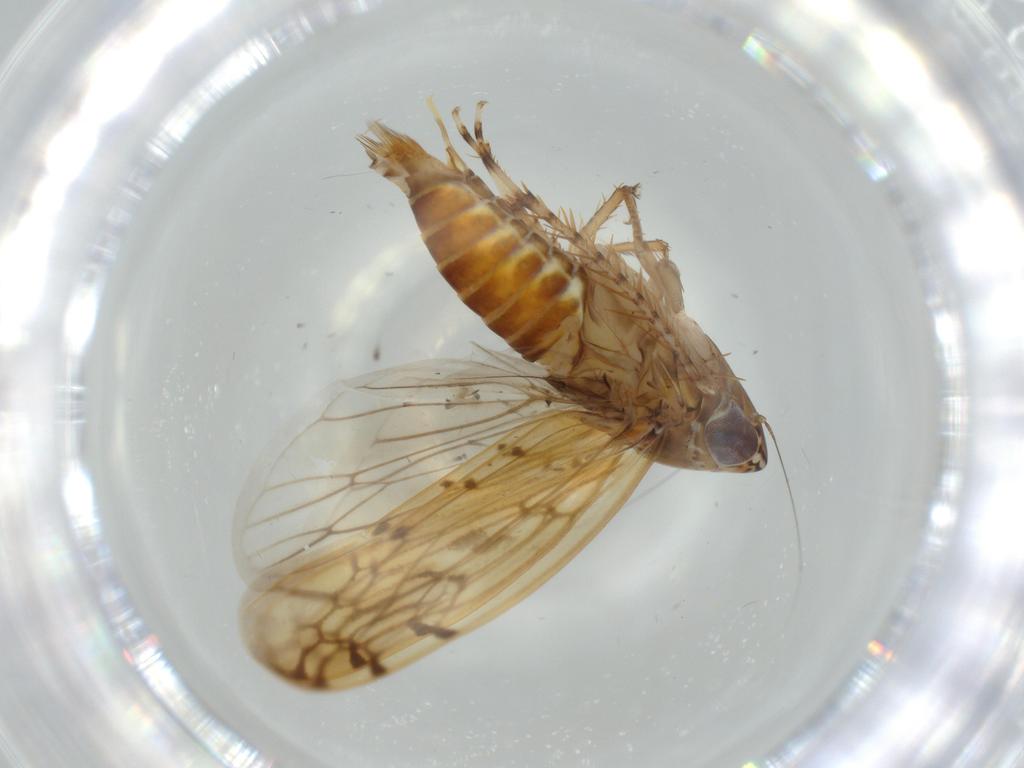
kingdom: Animalia
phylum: Arthropoda
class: Insecta
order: Hemiptera
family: Cicadellidae
